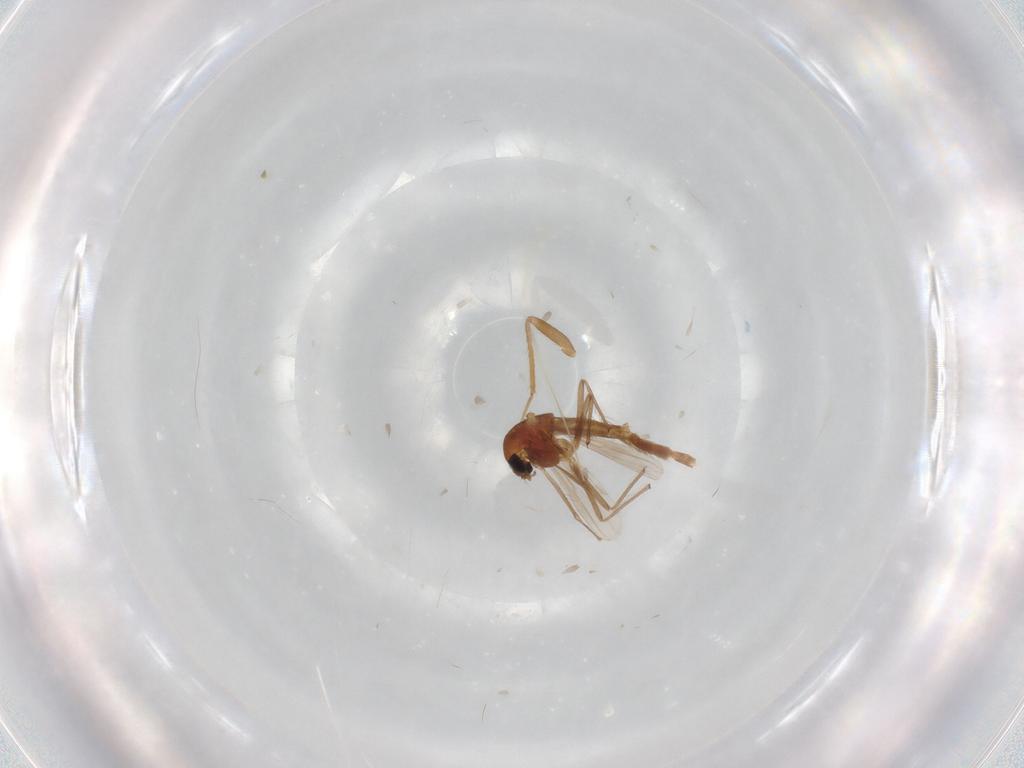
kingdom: Animalia
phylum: Arthropoda
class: Insecta
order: Diptera
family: Chironomidae
